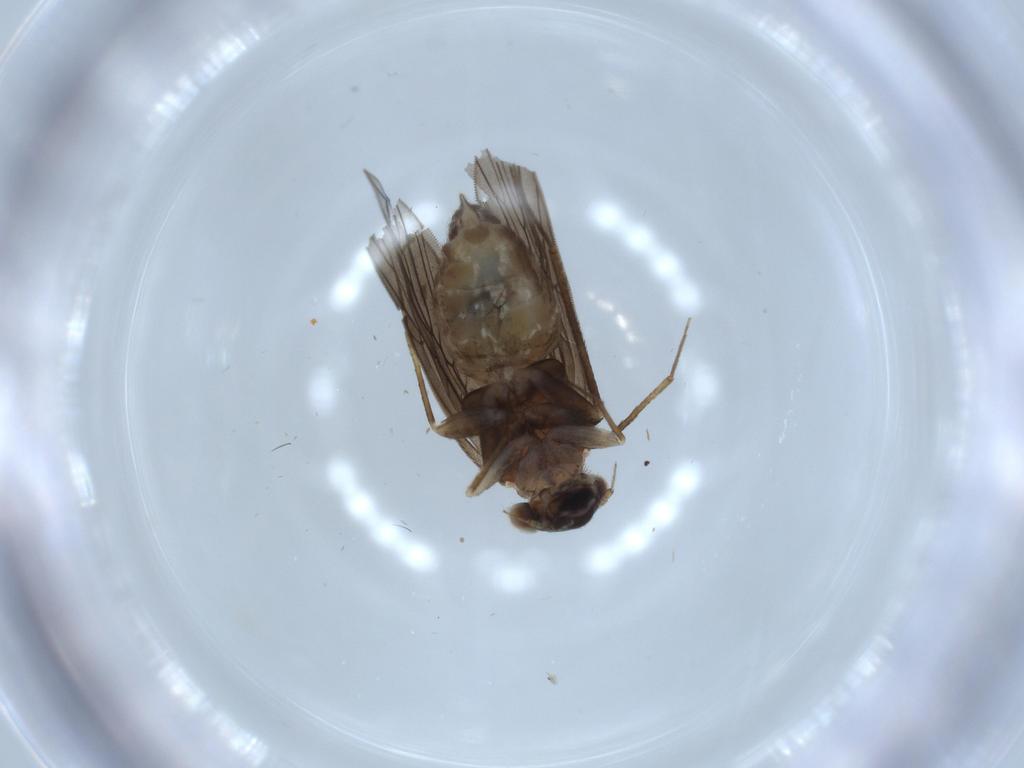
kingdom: Animalia
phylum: Arthropoda
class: Insecta
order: Psocodea
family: Lepidopsocidae
